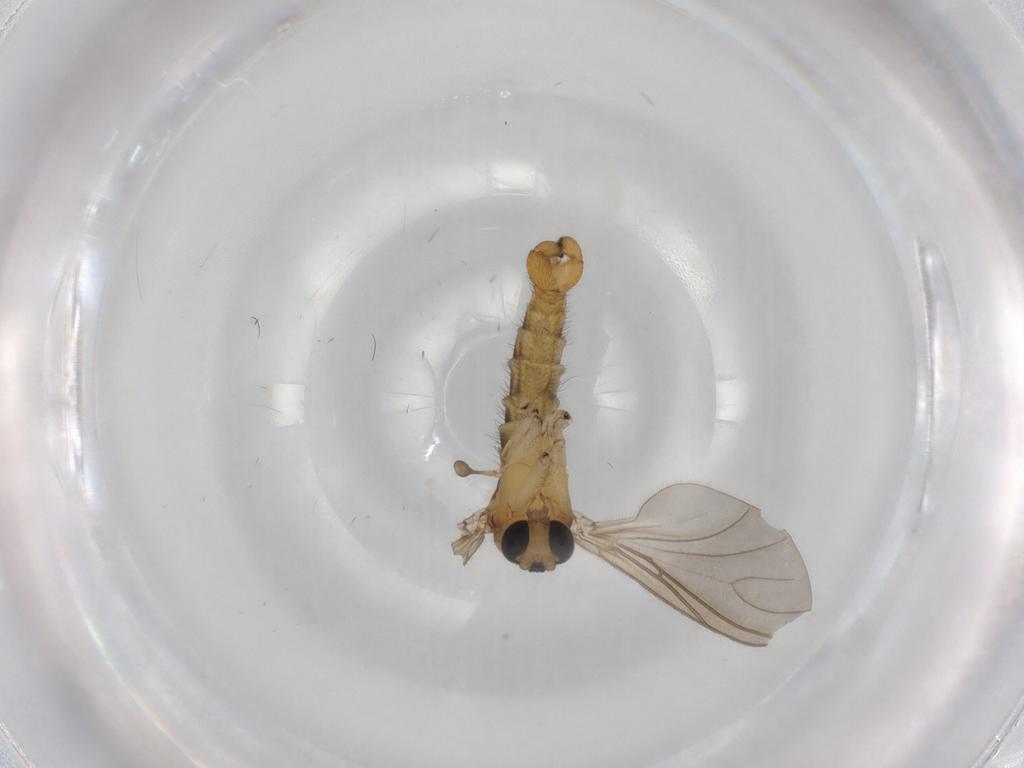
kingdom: Animalia
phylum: Arthropoda
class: Insecta
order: Diptera
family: Sciaridae
